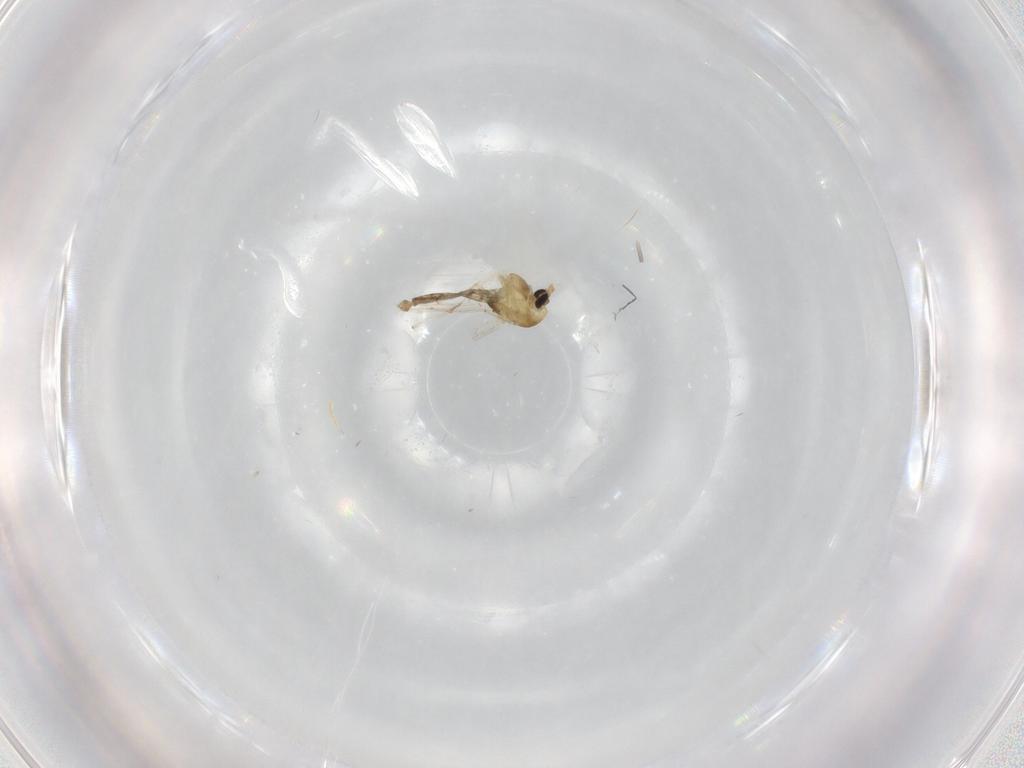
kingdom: Animalia
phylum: Arthropoda
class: Insecta
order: Diptera
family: Chironomidae
